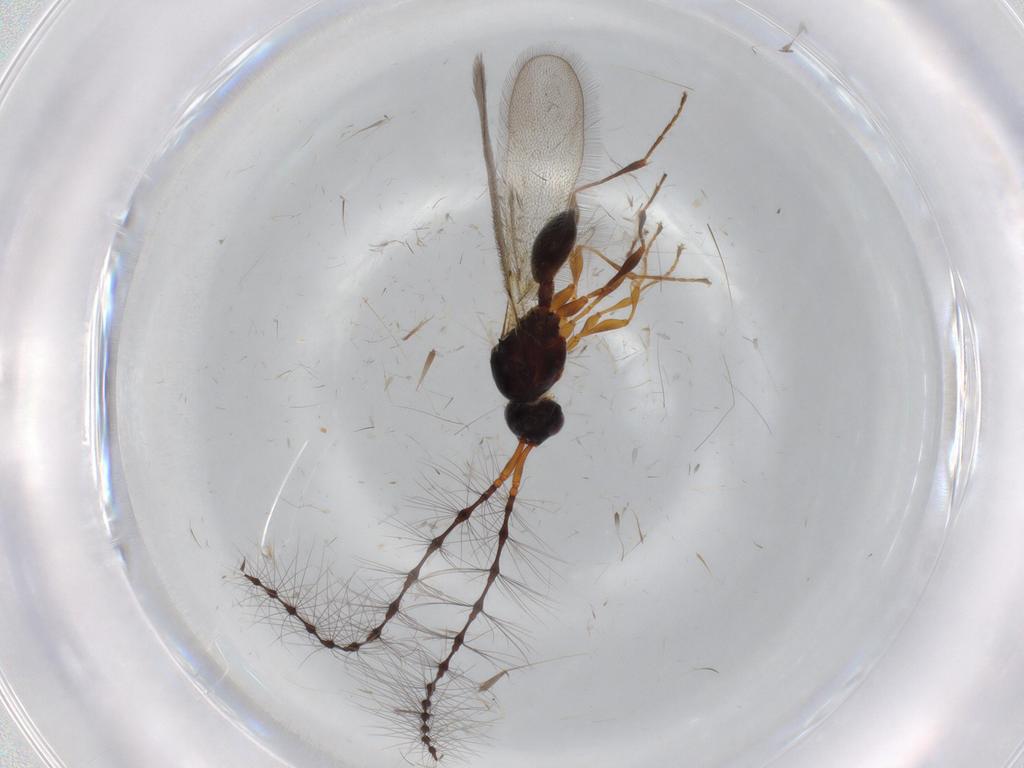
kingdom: Animalia
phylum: Arthropoda
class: Insecta
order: Hymenoptera
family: Diapriidae
